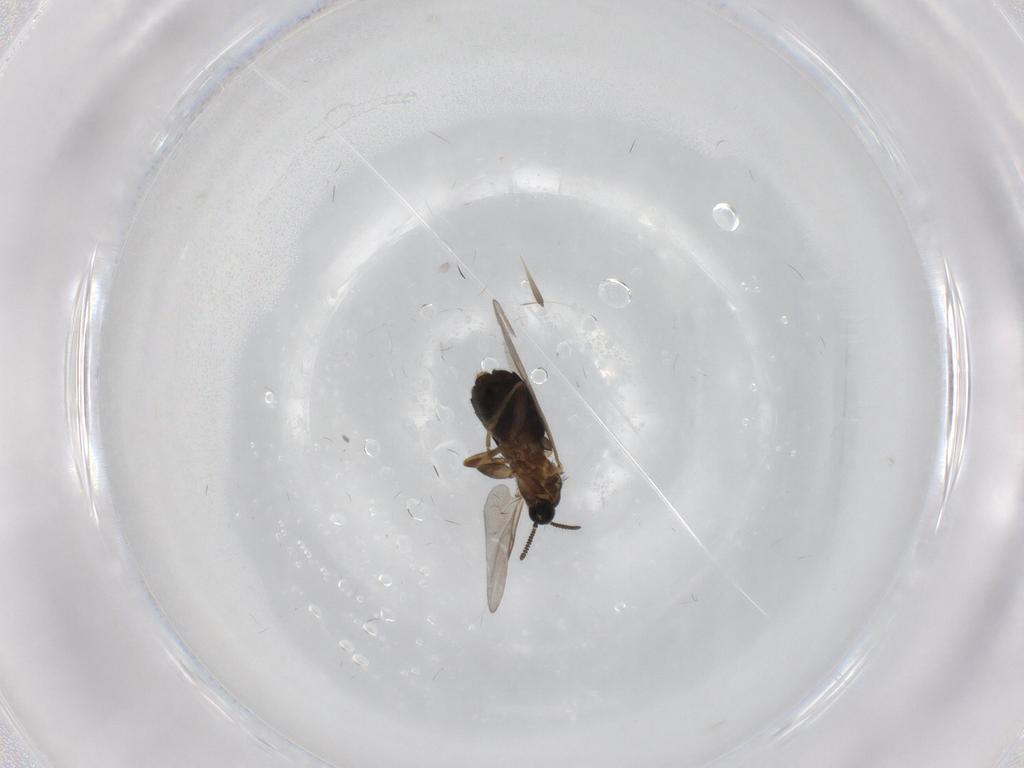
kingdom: Animalia
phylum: Arthropoda
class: Insecta
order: Diptera
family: Scatopsidae
